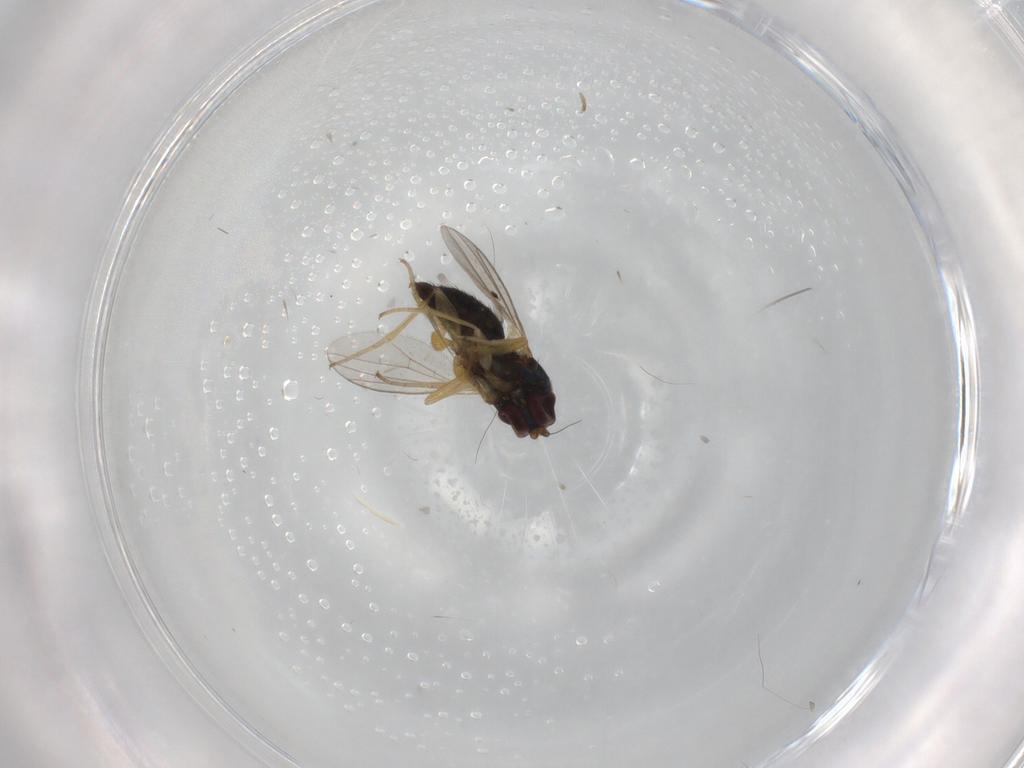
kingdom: Animalia
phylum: Arthropoda
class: Insecta
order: Diptera
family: Dolichopodidae
